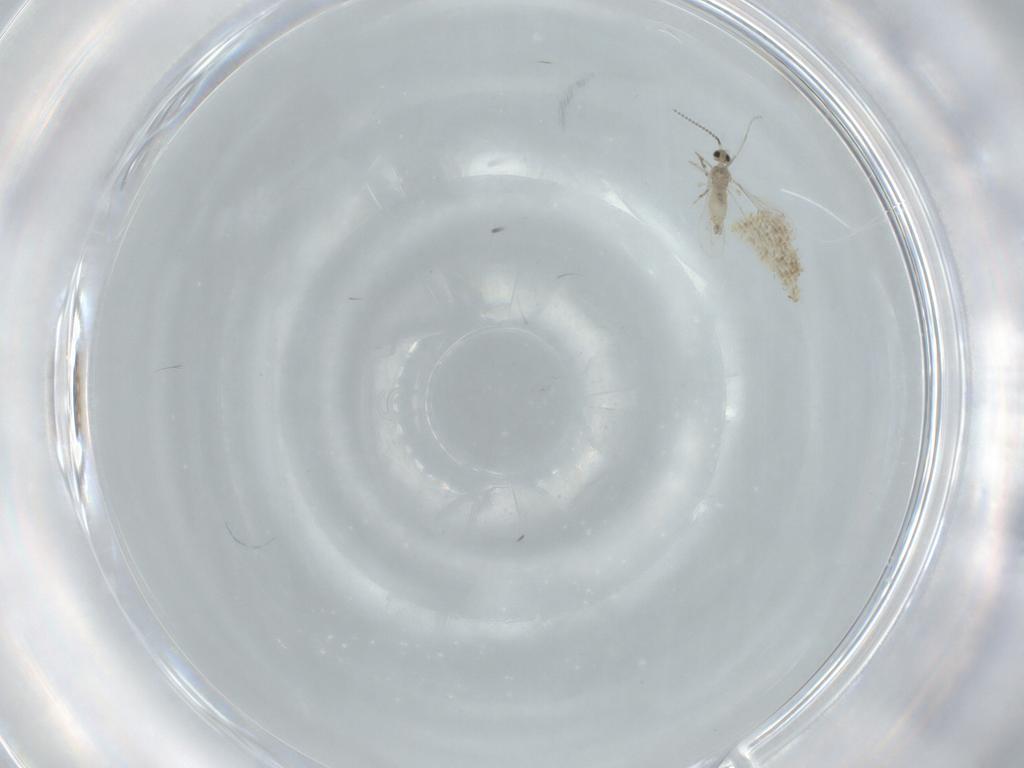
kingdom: Animalia
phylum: Arthropoda
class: Insecta
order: Diptera
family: Cecidomyiidae
